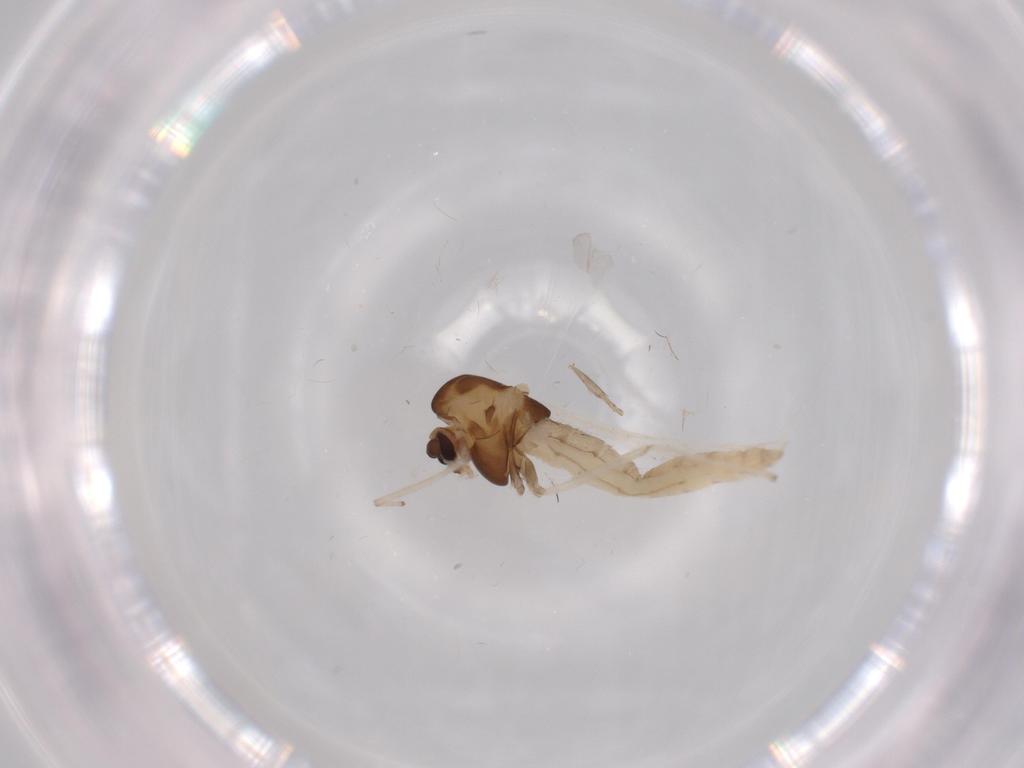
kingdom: Animalia
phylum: Arthropoda
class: Insecta
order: Diptera
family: Chironomidae
